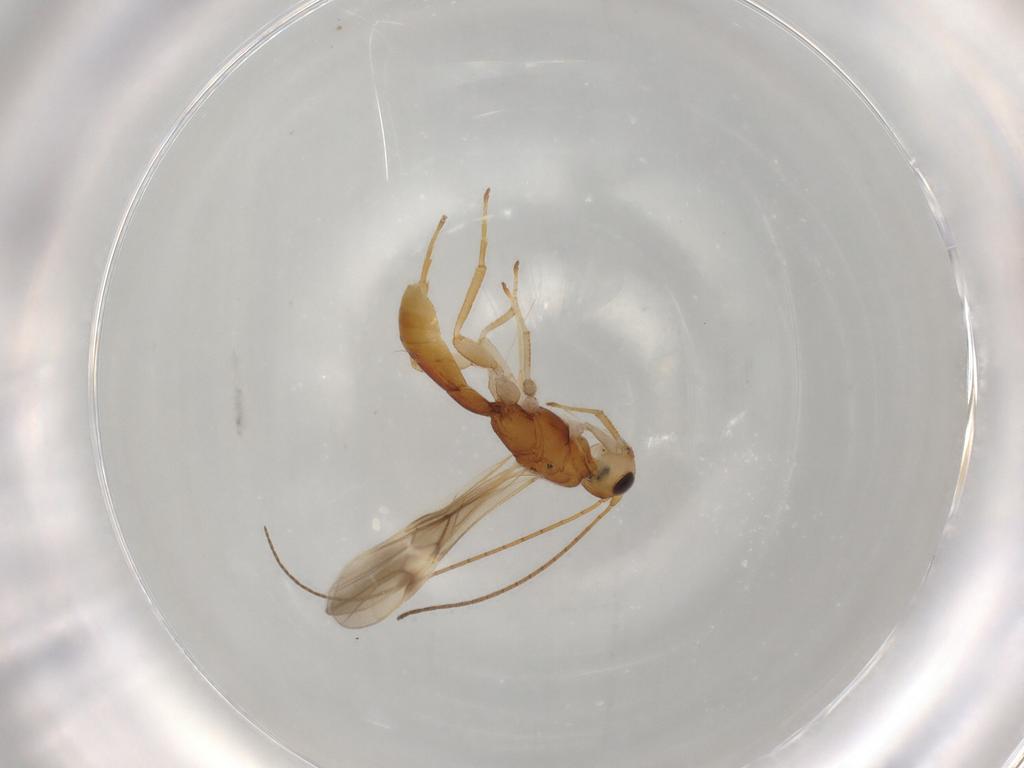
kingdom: Animalia
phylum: Arthropoda
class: Insecta
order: Hymenoptera
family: Braconidae
